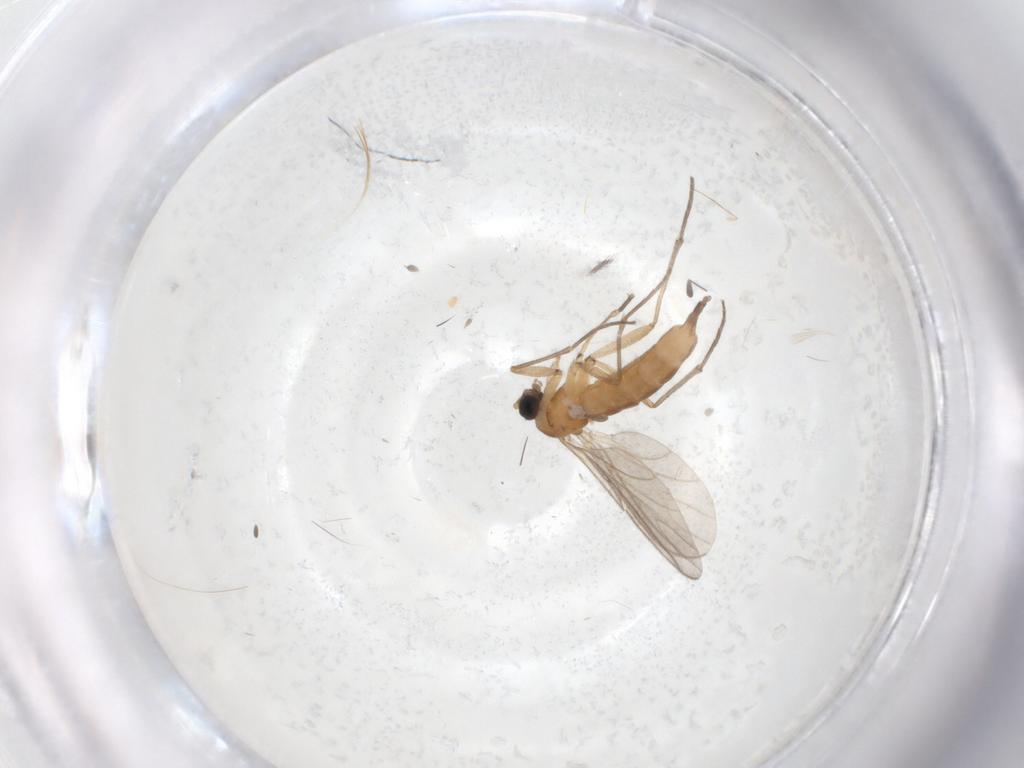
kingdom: Animalia
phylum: Arthropoda
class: Insecta
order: Diptera
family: Sciaridae
